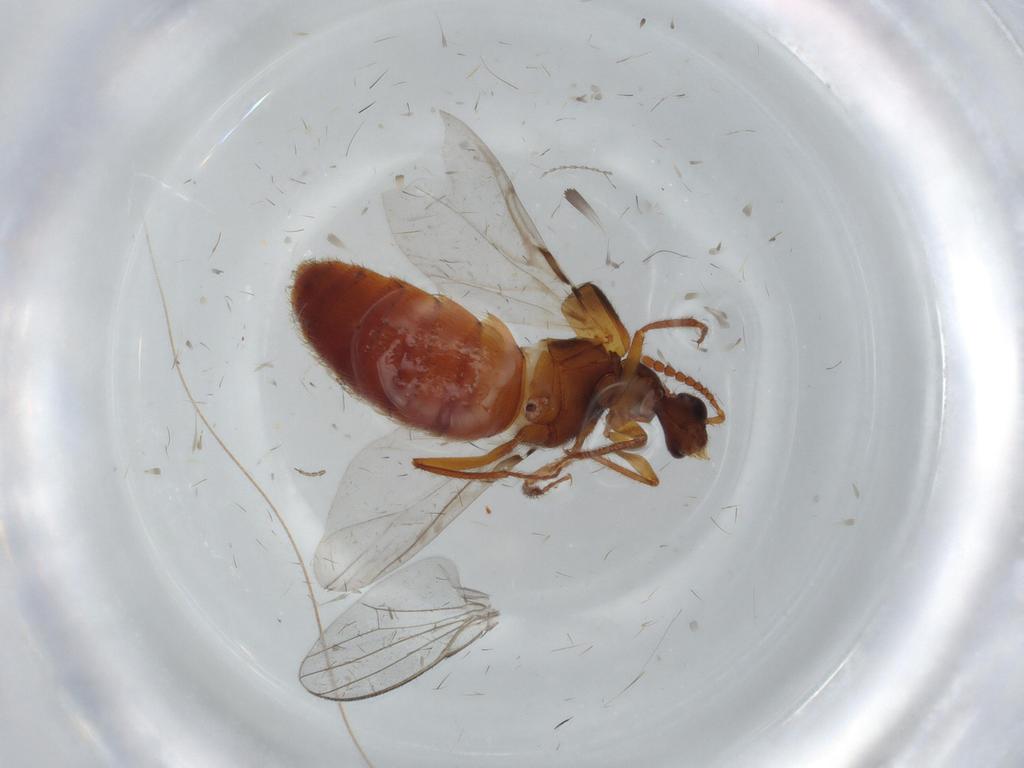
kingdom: Animalia
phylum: Arthropoda
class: Insecta
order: Coleoptera
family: Staphylinidae
